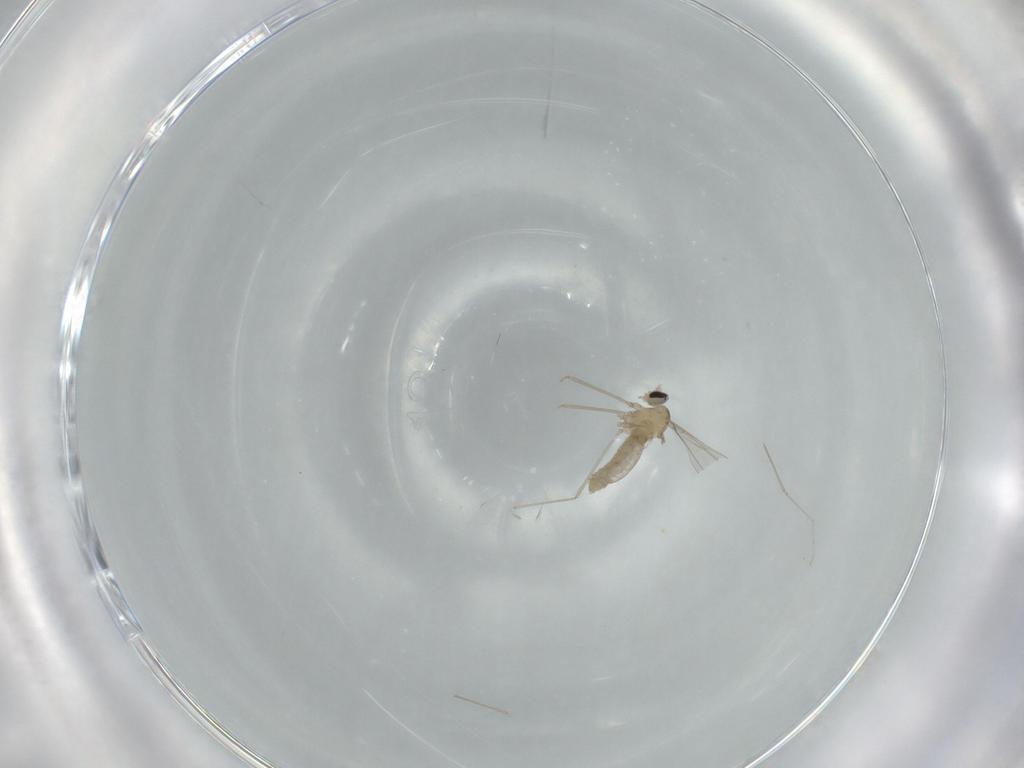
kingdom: Animalia
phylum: Arthropoda
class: Insecta
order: Diptera
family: Cecidomyiidae
